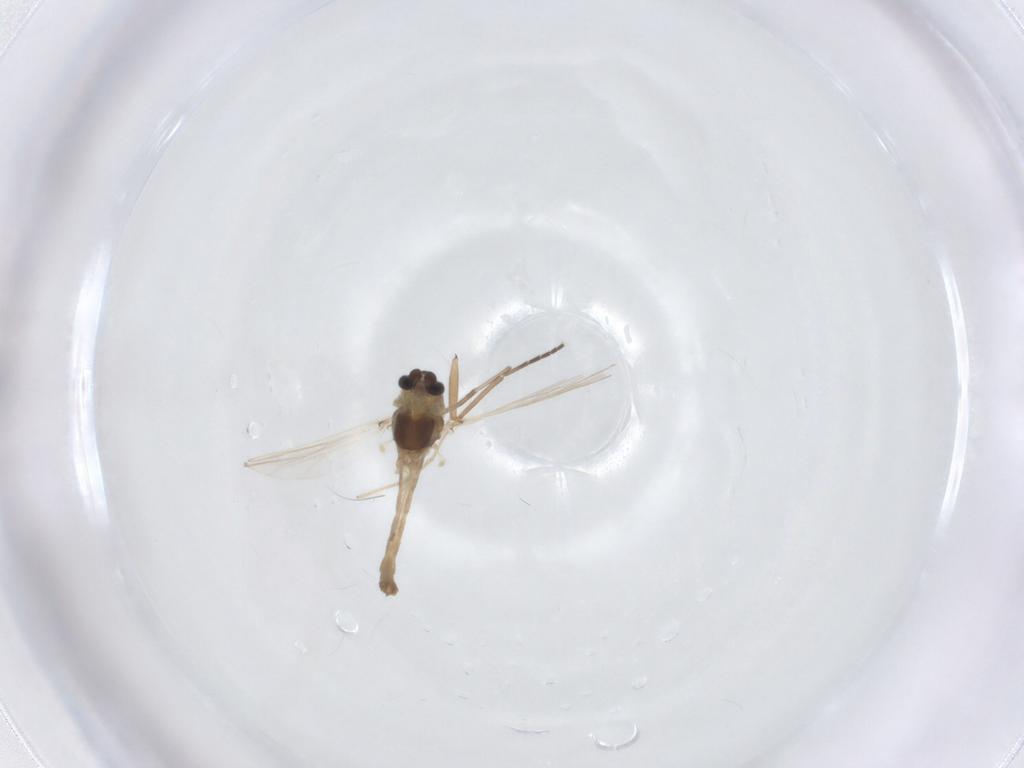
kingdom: Animalia
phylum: Arthropoda
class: Insecta
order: Diptera
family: Chironomidae
